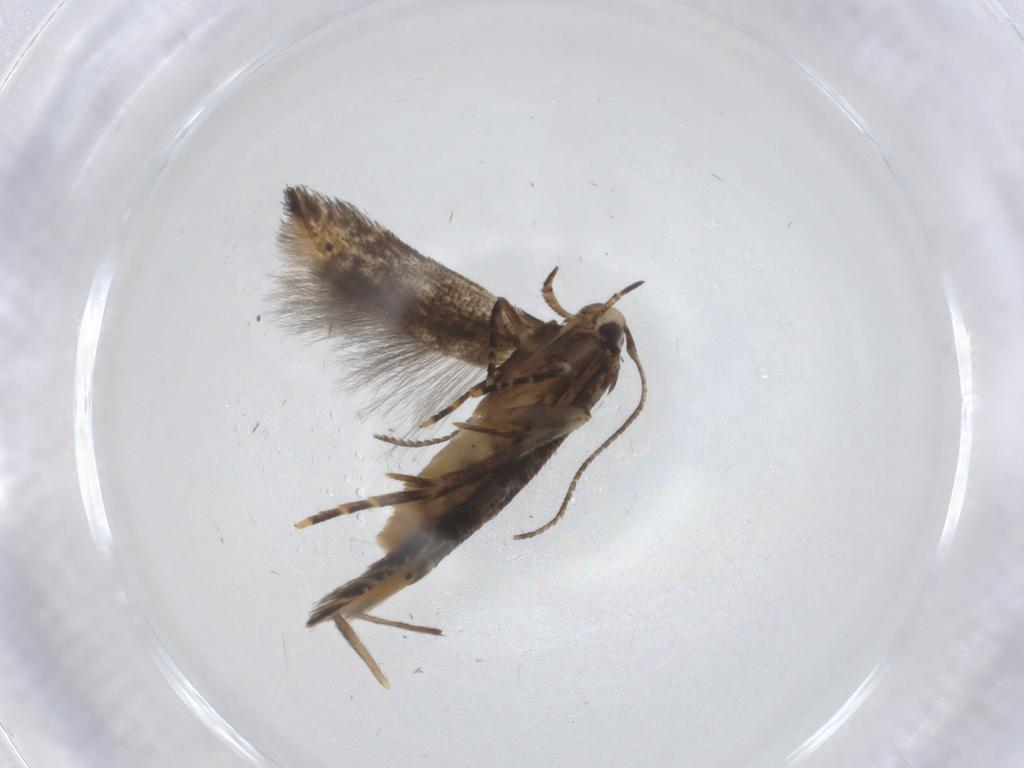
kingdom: Animalia
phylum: Arthropoda
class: Insecta
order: Lepidoptera
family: Cosmopterigidae
